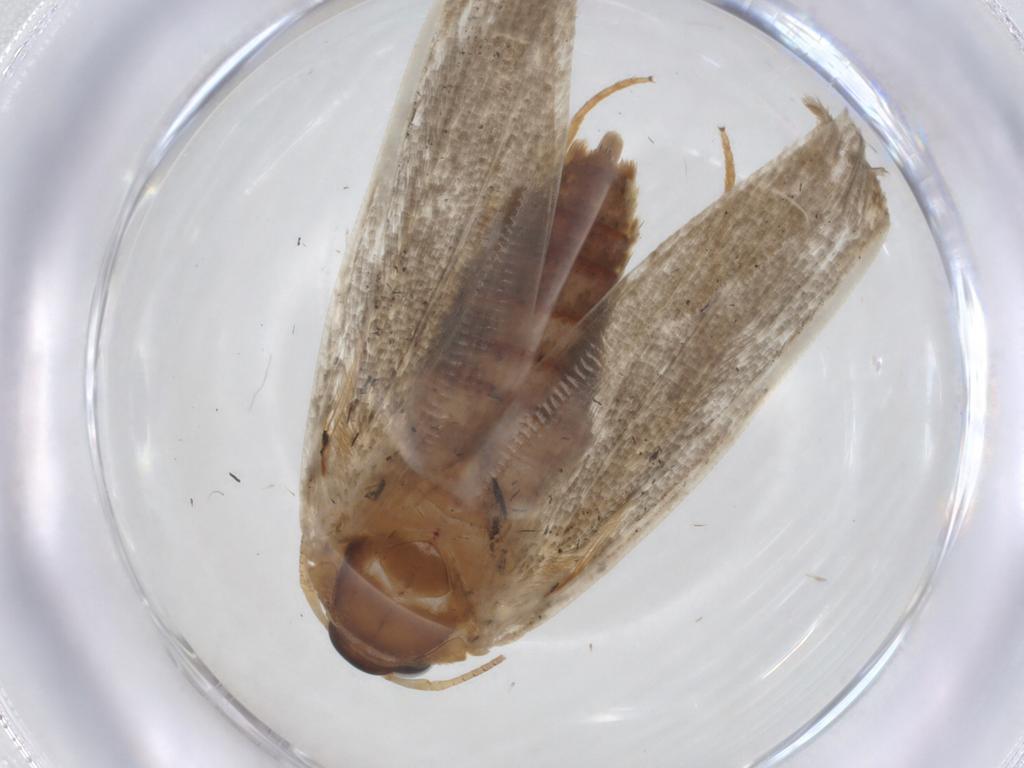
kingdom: Animalia
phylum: Arthropoda
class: Insecta
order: Lepidoptera
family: Blastobasidae
